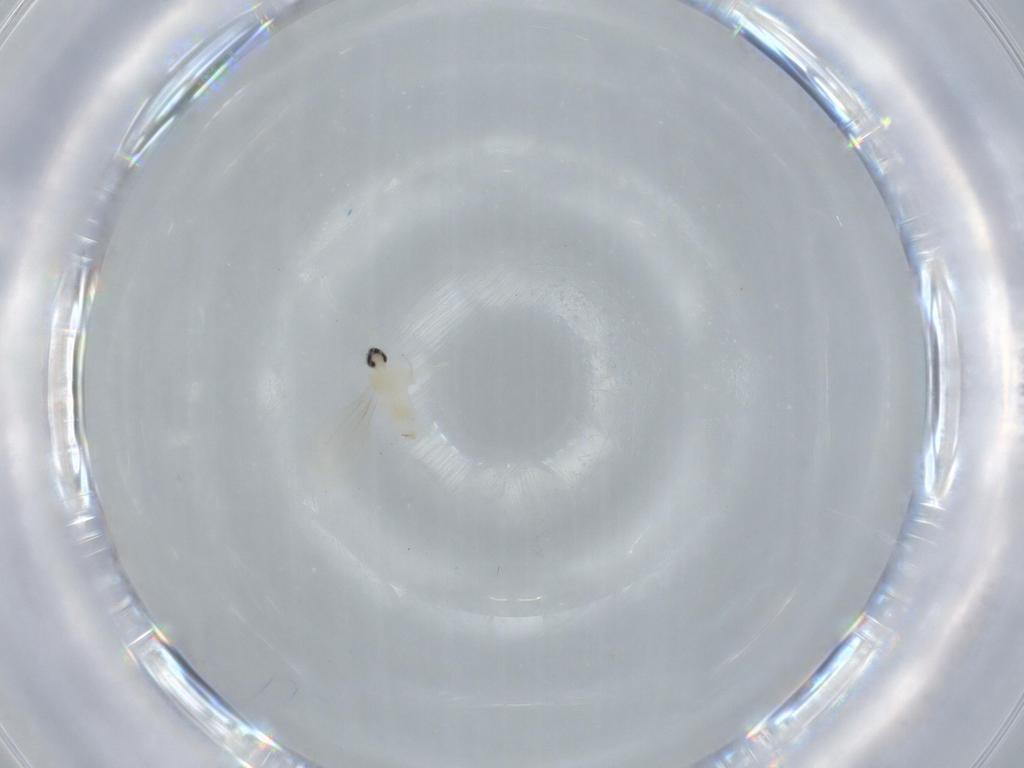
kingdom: Animalia
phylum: Arthropoda
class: Insecta
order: Diptera
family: Cecidomyiidae
